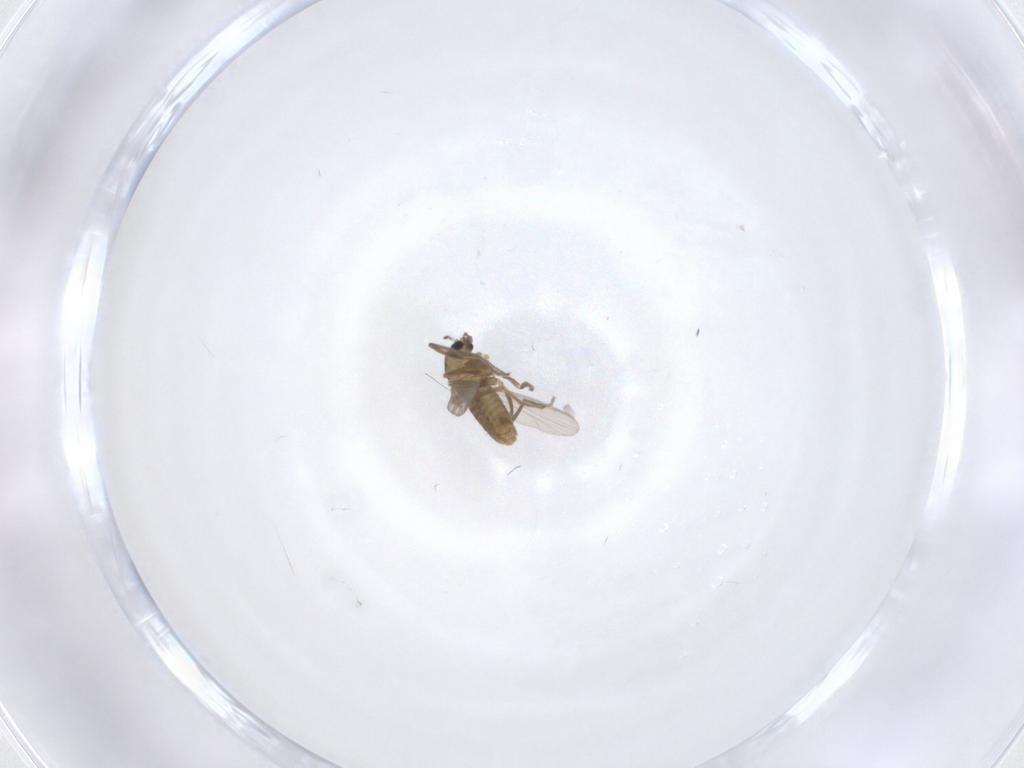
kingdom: Animalia
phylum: Arthropoda
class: Insecta
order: Diptera
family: Chironomidae
